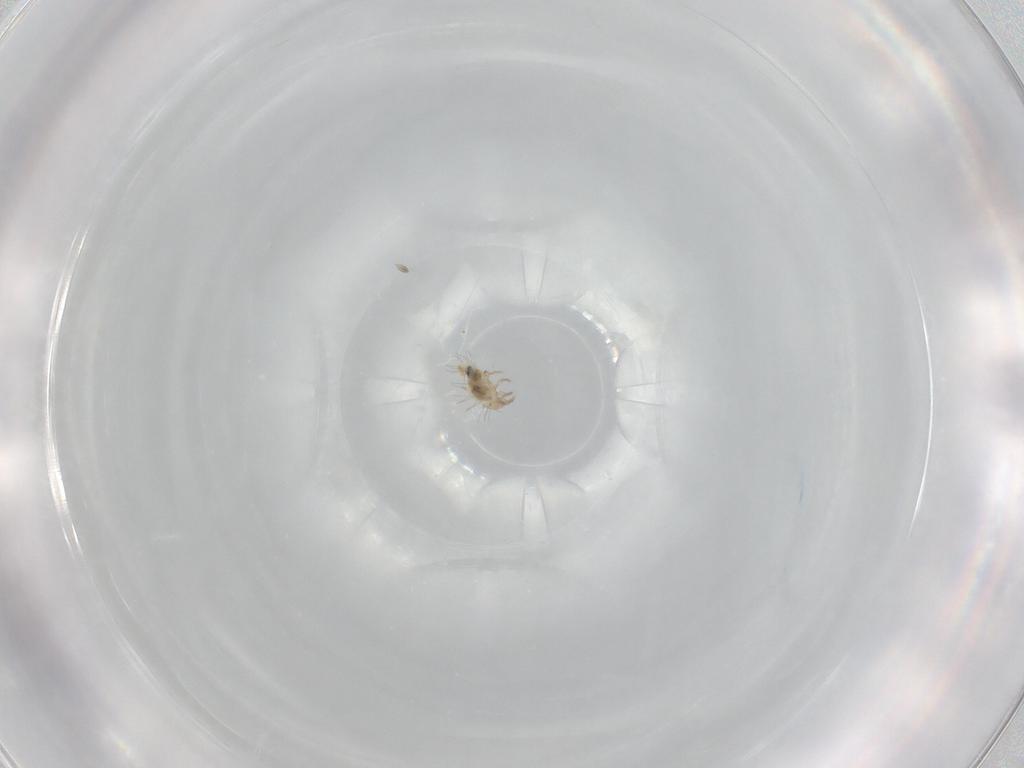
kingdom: Animalia
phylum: Arthropoda
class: Arachnida
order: Sarcoptiformes
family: Mochlozetidae
